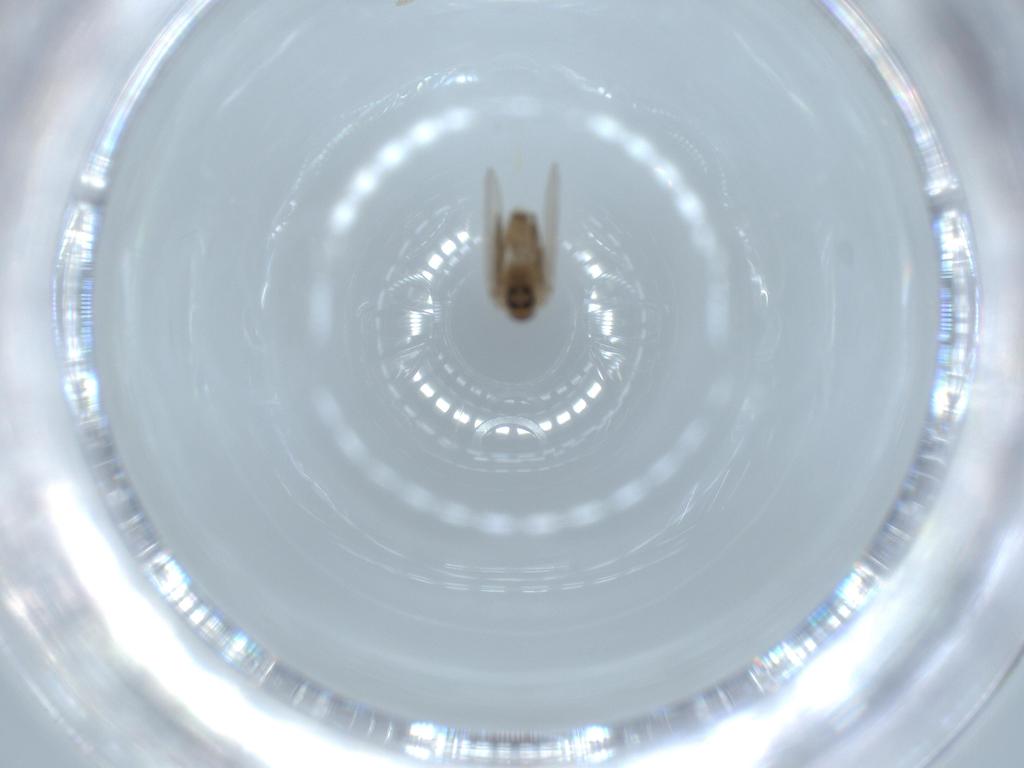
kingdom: Animalia
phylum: Arthropoda
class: Insecta
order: Diptera
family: Psychodidae
